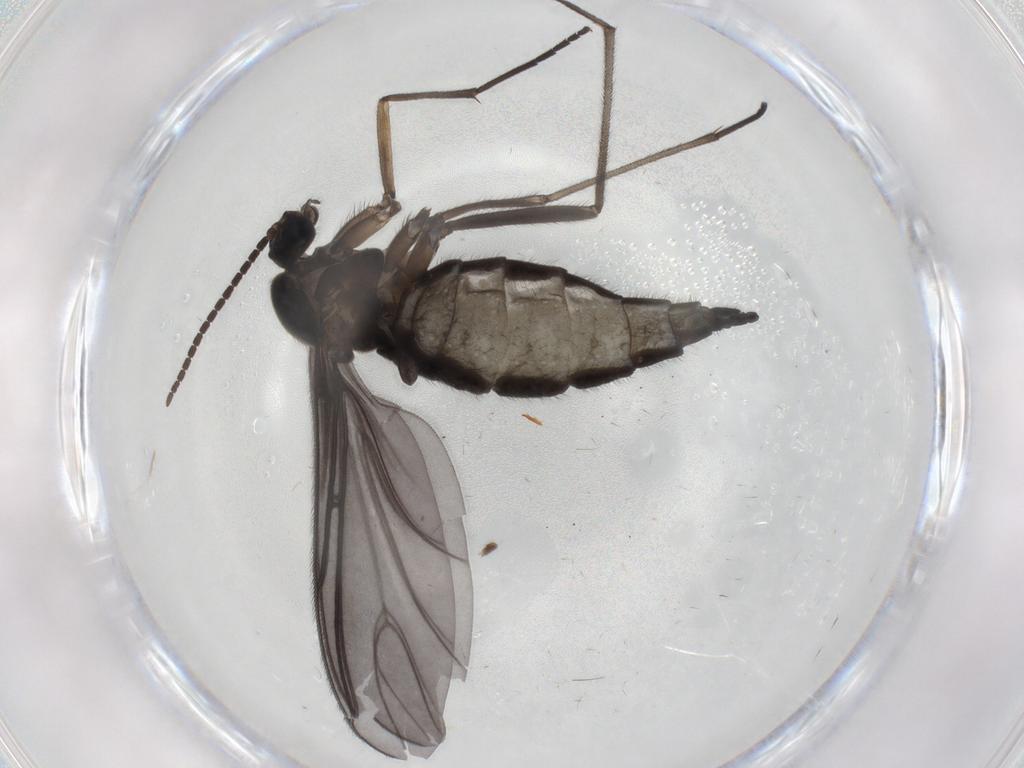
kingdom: Animalia
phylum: Arthropoda
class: Insecta
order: Diptera
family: Sciaridae
